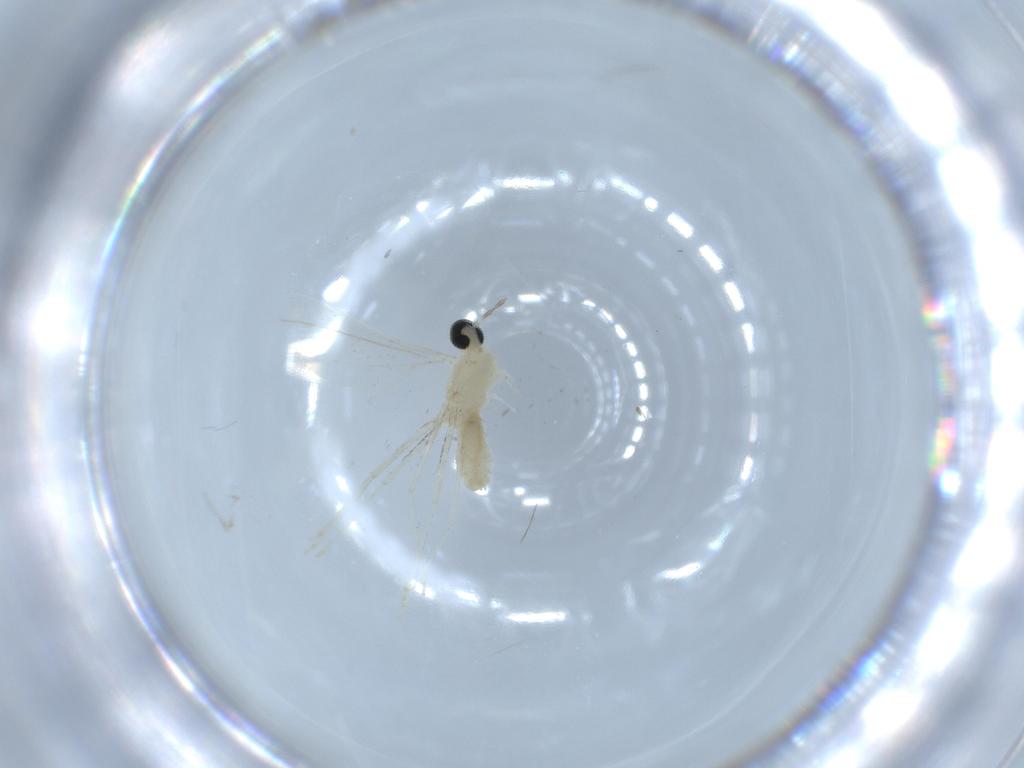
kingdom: Animalia
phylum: Arthropoda
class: Insecta
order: Diptera
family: Cecidomyiidae
